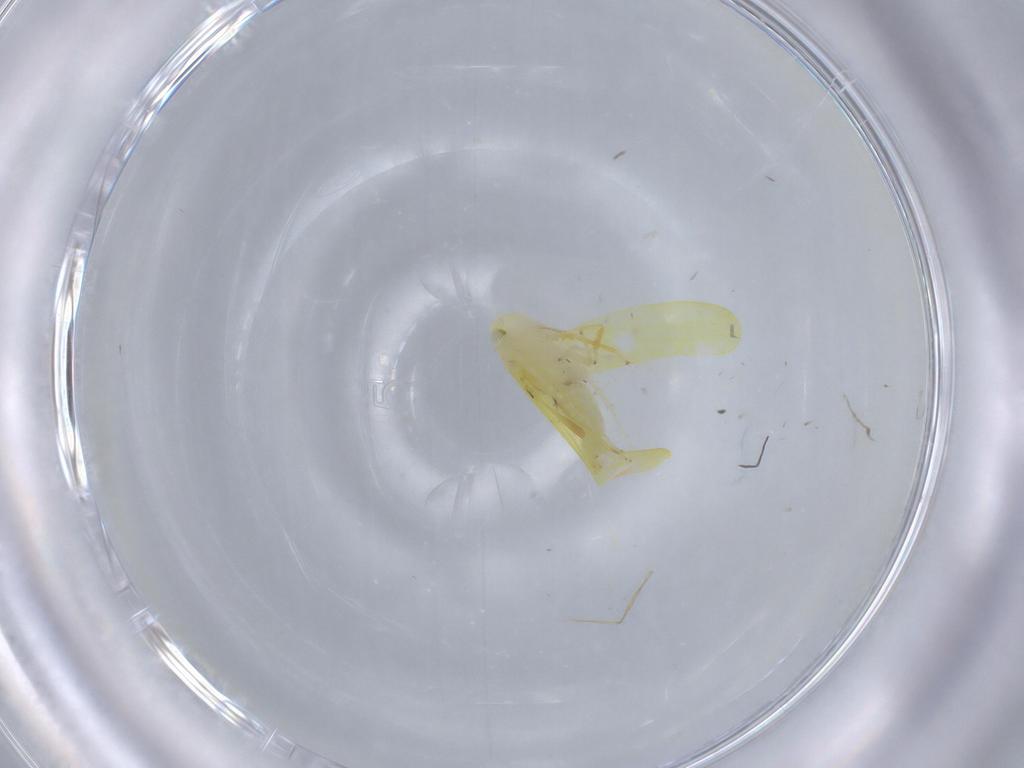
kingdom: Animalia
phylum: Arthropoda
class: Insecta
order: Hemiptera
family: Cicadellidae
